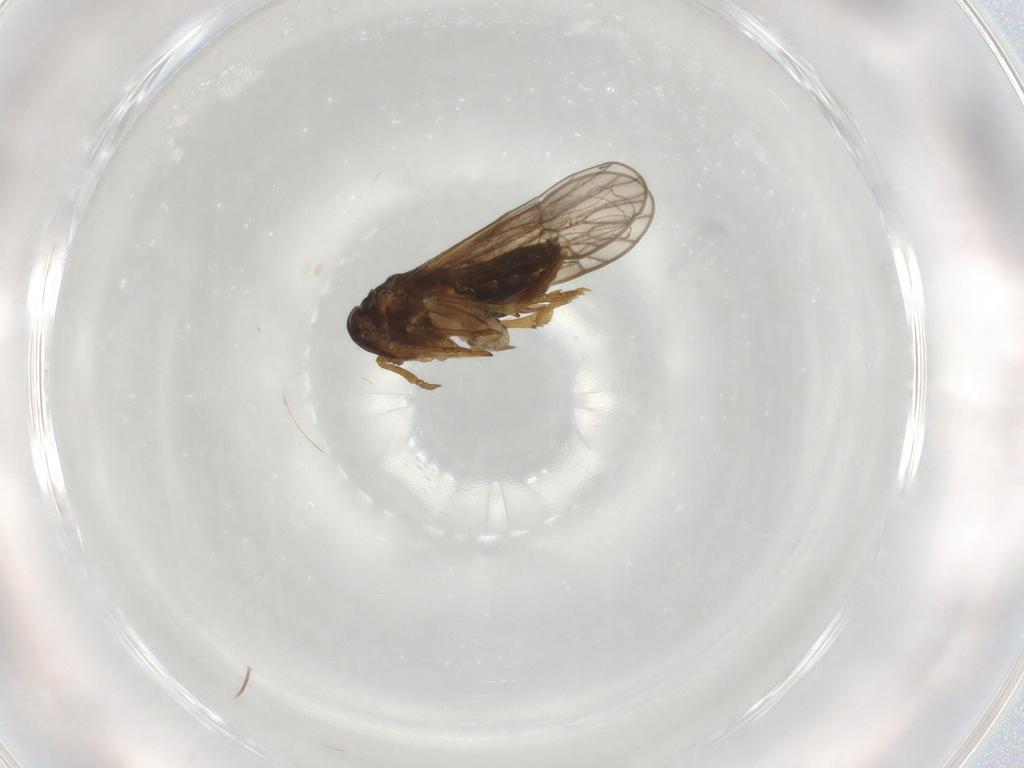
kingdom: Animalia
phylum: Arthropoda
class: Insecta
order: Hemiptera
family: Delphacidae
